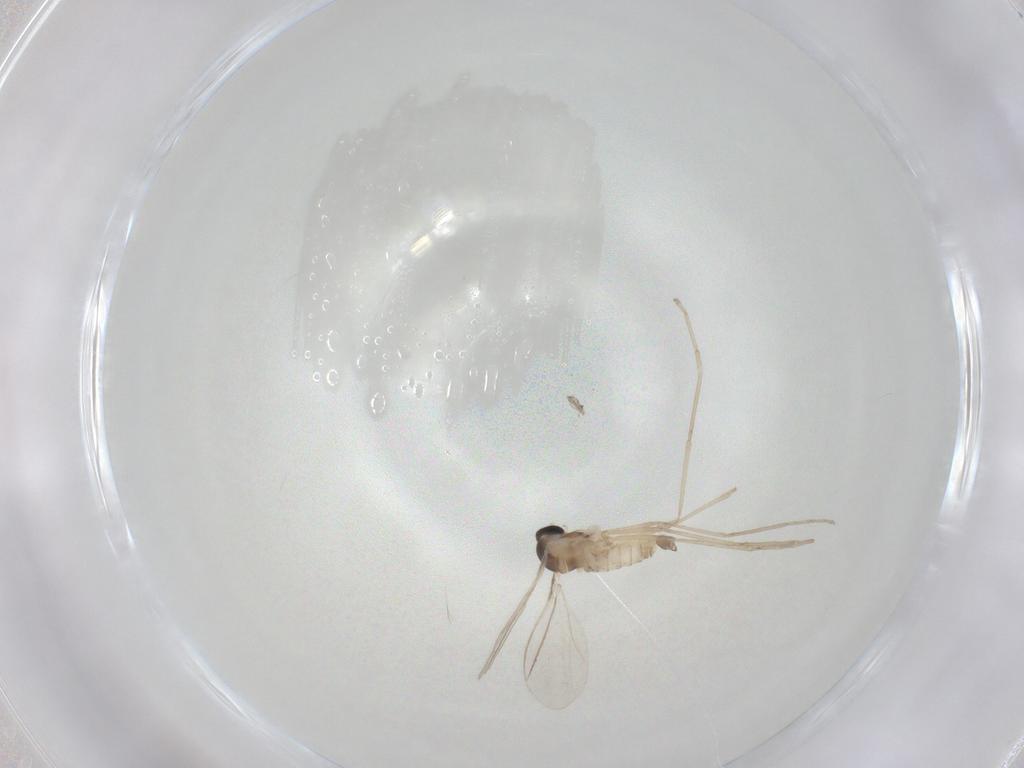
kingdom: Animalia
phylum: Arthropoda
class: Insecta
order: Diptera
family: Cecidomyiidae
